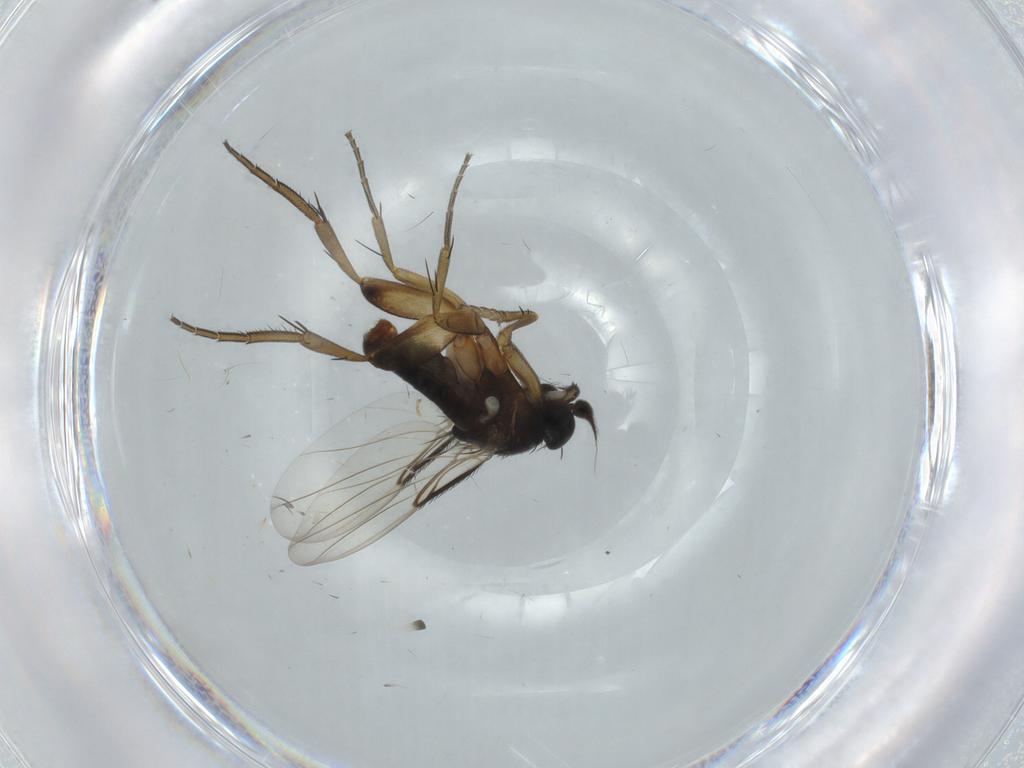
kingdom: Animalia
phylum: Arthropoda
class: Insecta
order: Diptera
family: Phoridae
